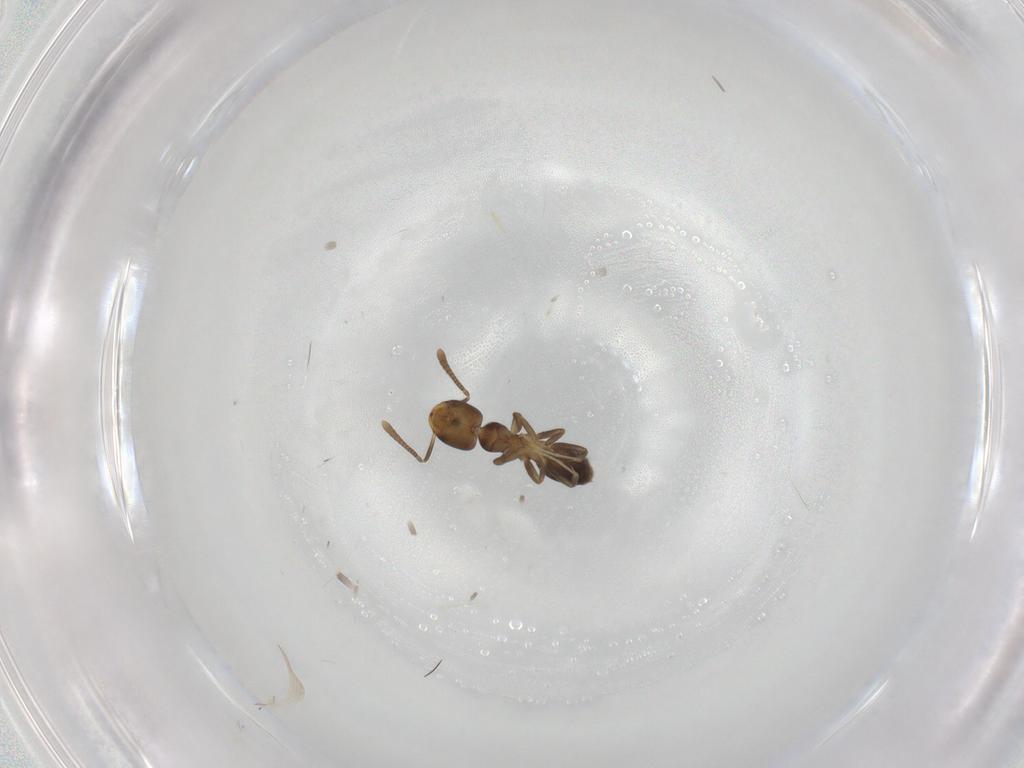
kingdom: Animalia
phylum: Arthropoda
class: Insecta
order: Hymenoptera
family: Formicidae
